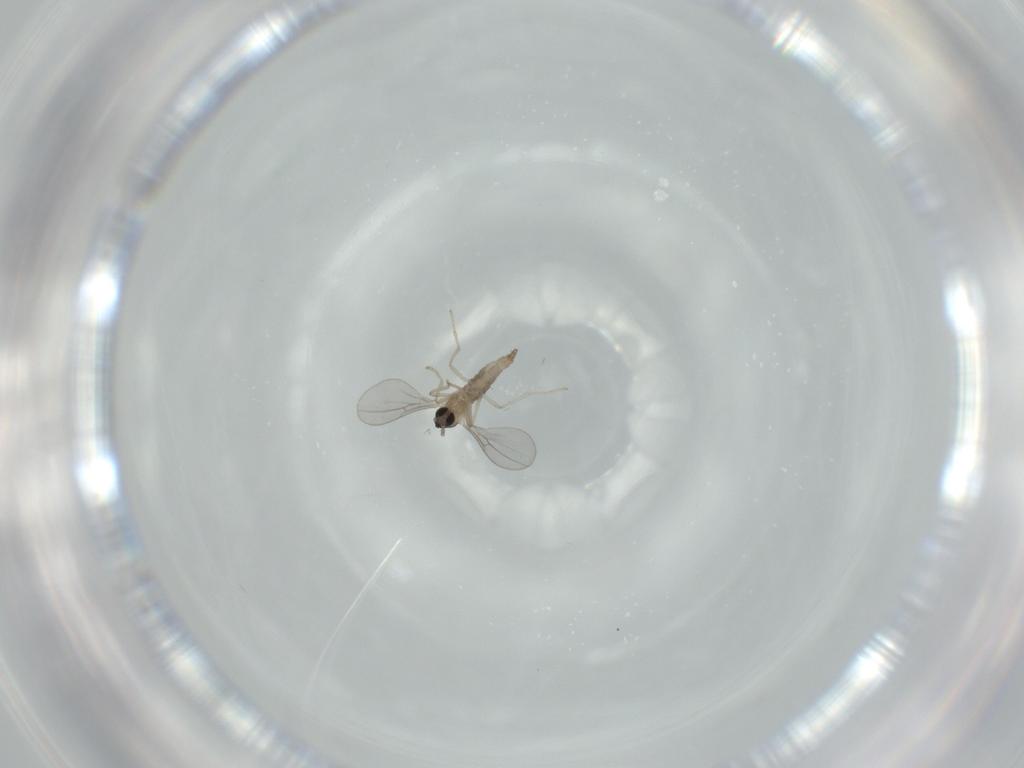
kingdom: Animalia
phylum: Arthropoda
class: Insecta
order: Diptera
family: Cecidomyiidae
